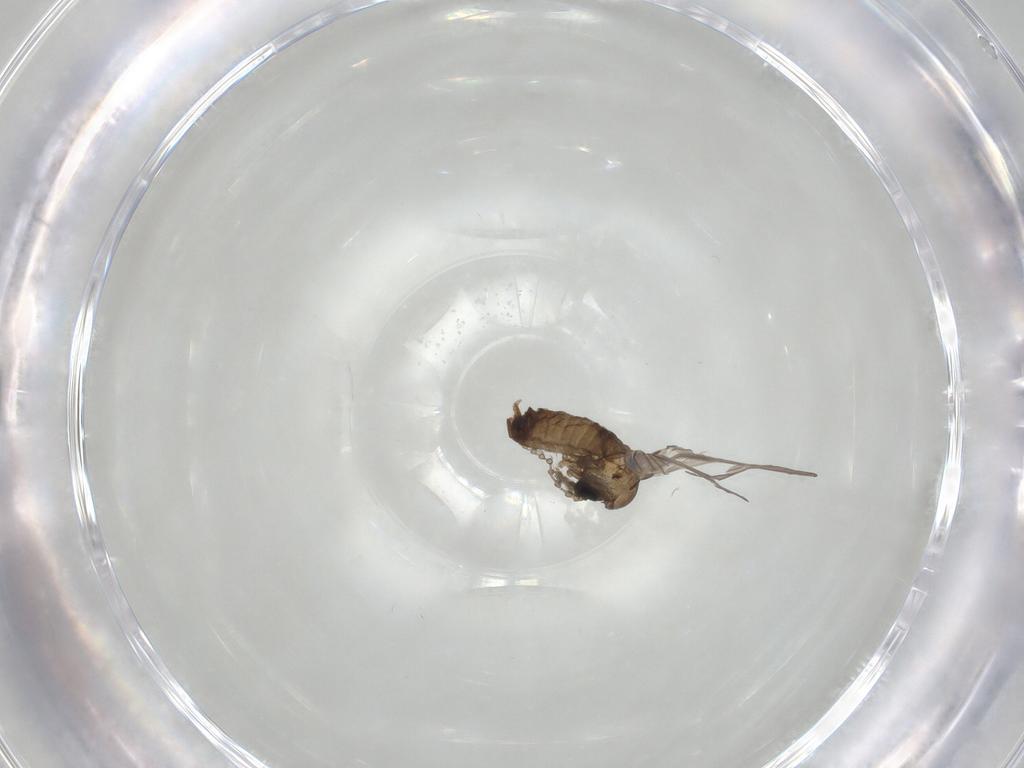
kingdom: Animalia
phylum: Arthropoda
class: Insecta
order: Diptera
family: Psychodidae
